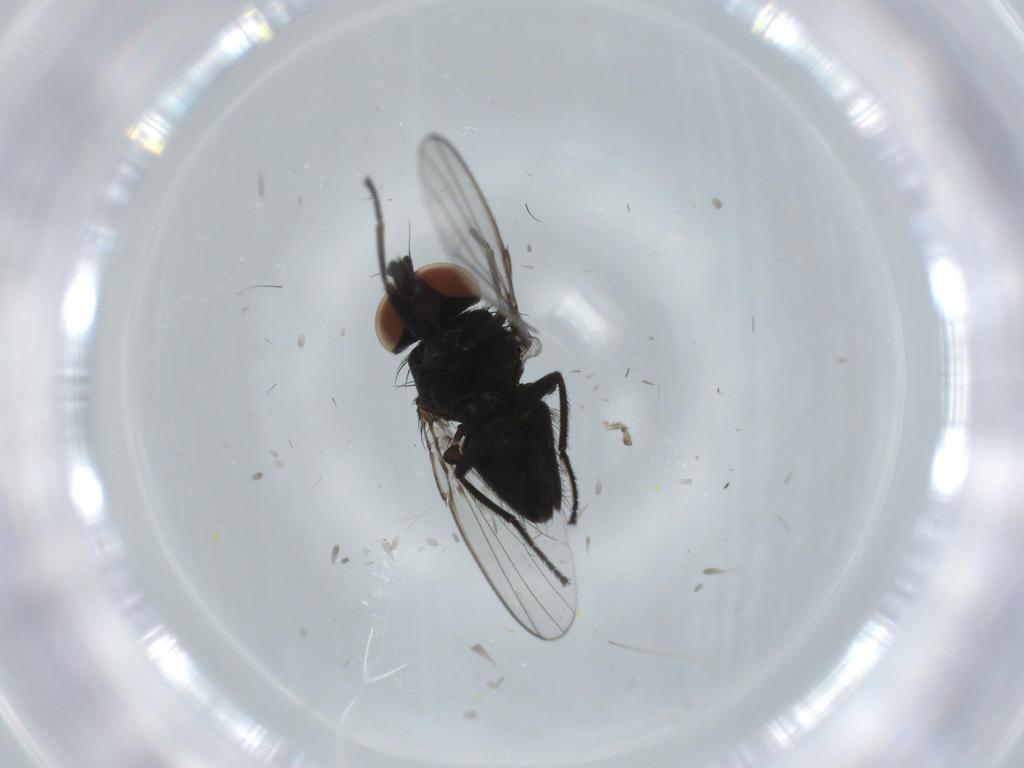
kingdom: Animalia
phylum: Arthropoda
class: Insecta
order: Diptera
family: Milichiidae
